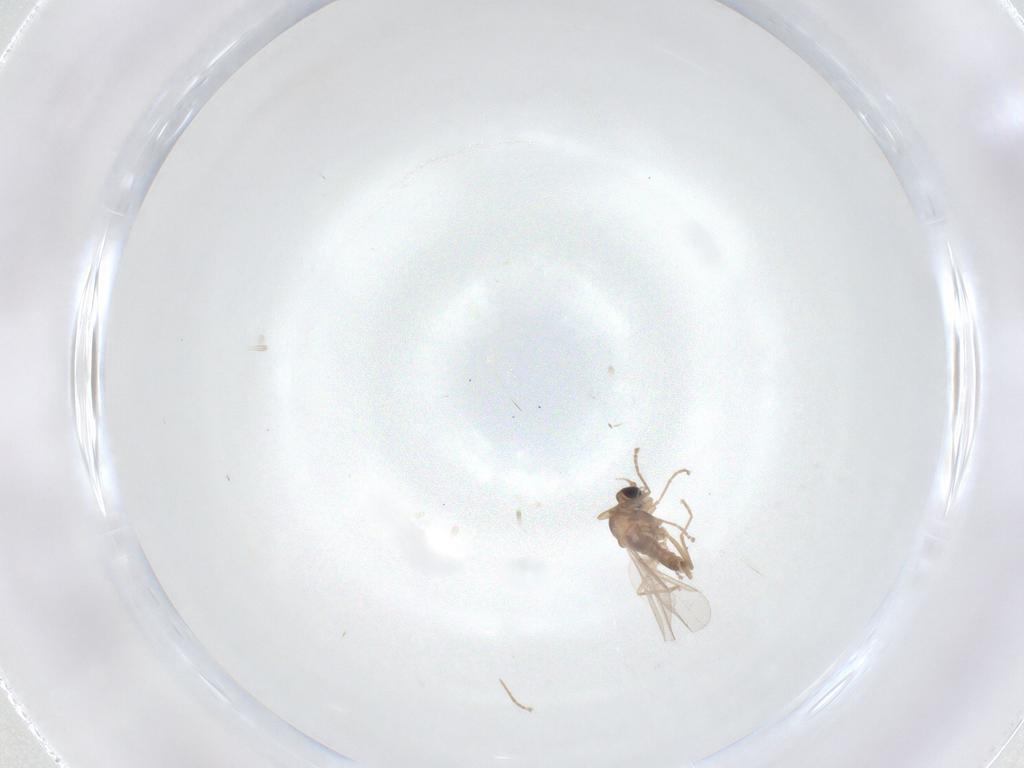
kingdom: Animalia
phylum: Arthropoda
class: Insecta
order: Diptera
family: Cecidomyiidae
